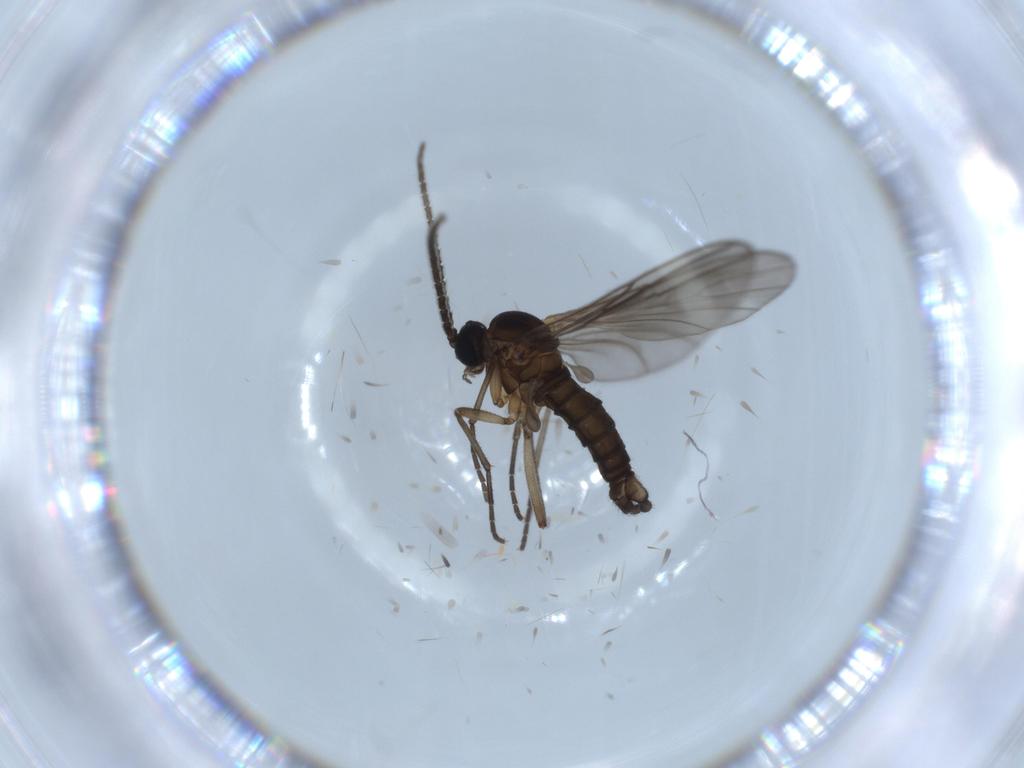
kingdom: Animalia
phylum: Arthropoda
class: Insecta
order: Diptera
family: Sciaridae
